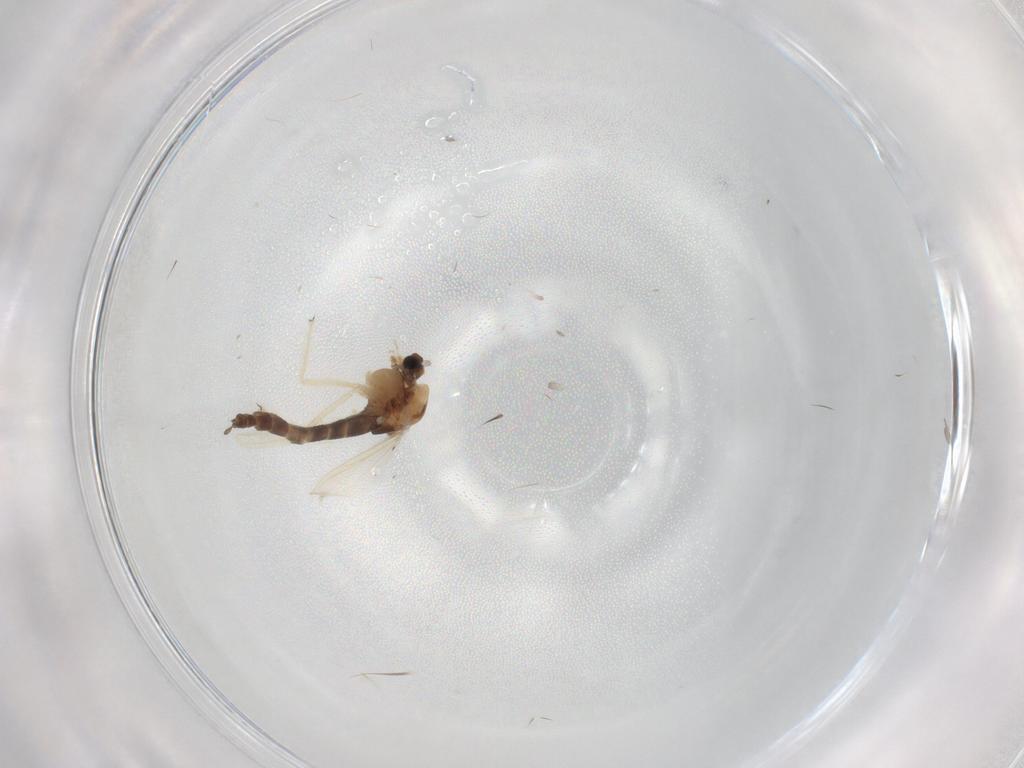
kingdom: Animalia
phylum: Arthropoda
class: Insecta
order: Diptera
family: Chironomidae
